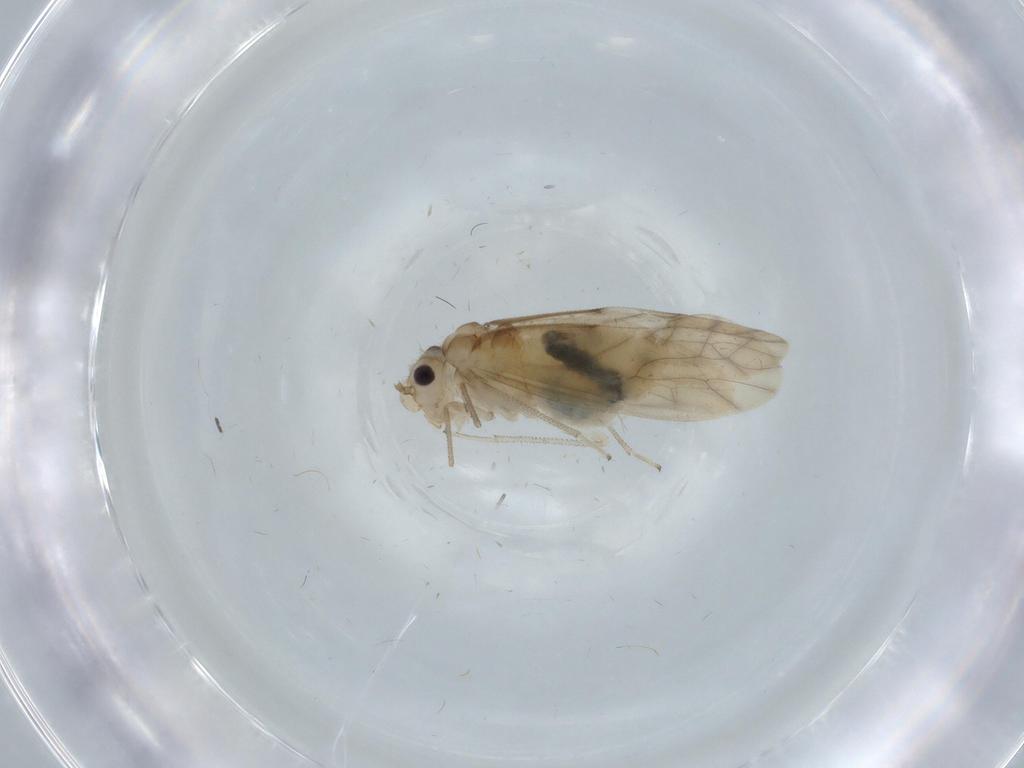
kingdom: Animalia
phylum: Arthropoda
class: Insecta
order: Psocodea
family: Caeciliusidae
